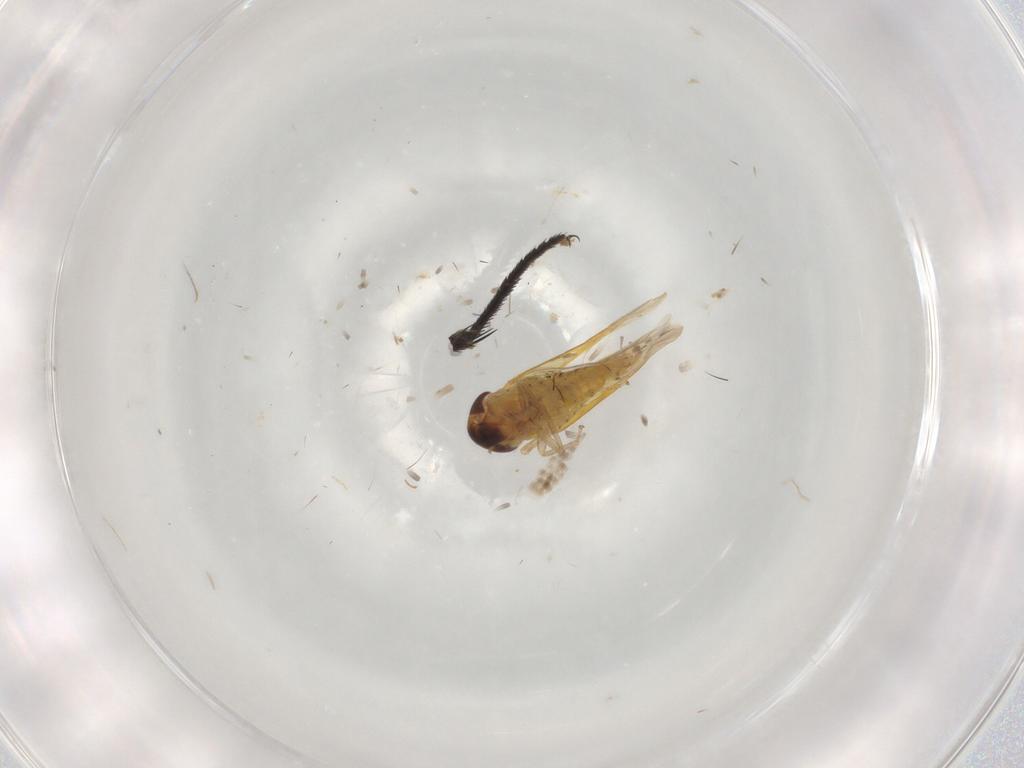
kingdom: Animalia
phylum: Arthropoda
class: Insecta
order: Hemiptera
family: Cicadellidae
